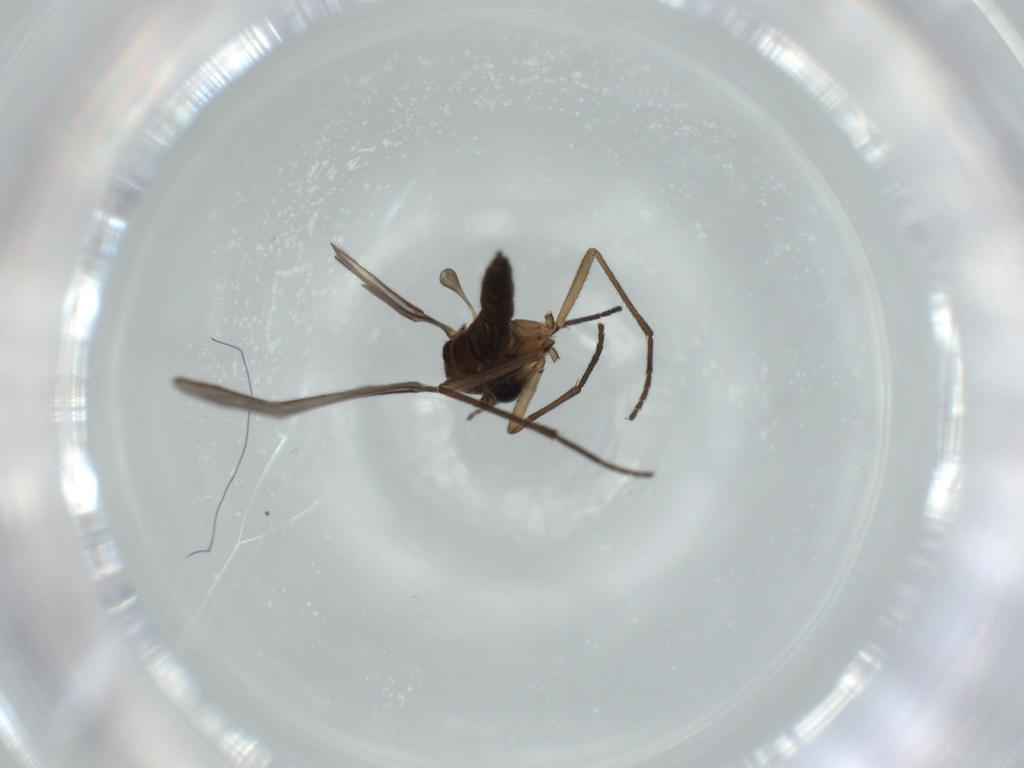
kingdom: Animalia
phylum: Arthropoda
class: Insecta
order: Diptera
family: Sciaridae
